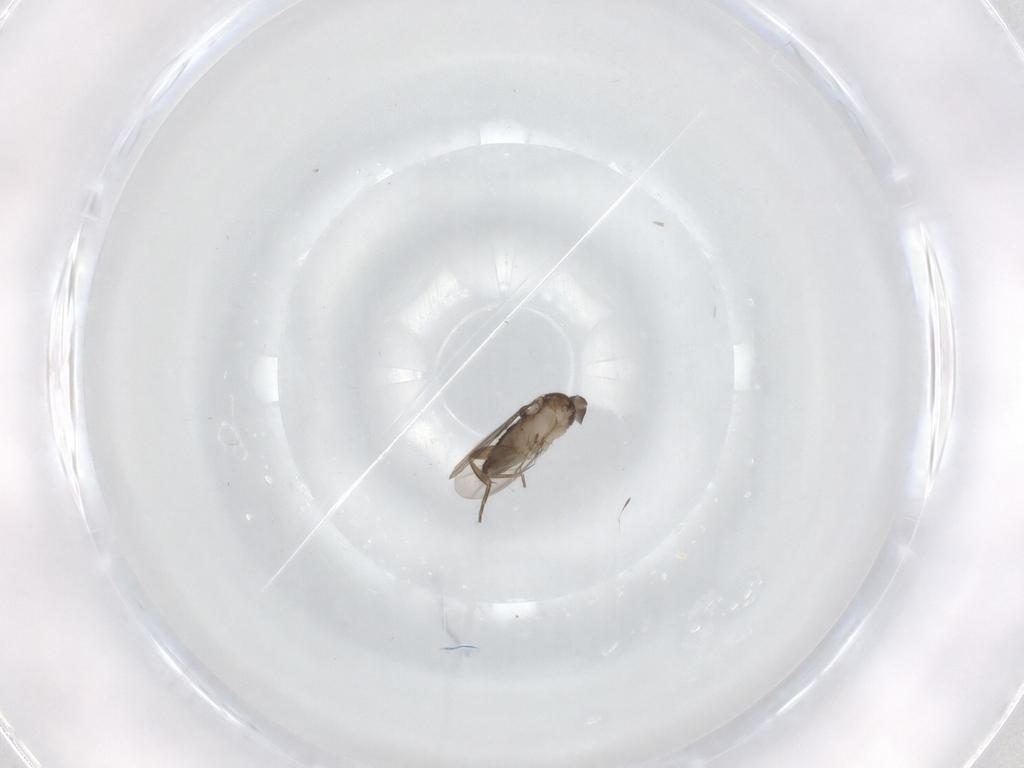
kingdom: Animalia
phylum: Arthropoda
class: Insecta
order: Diptera
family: Phoridae
